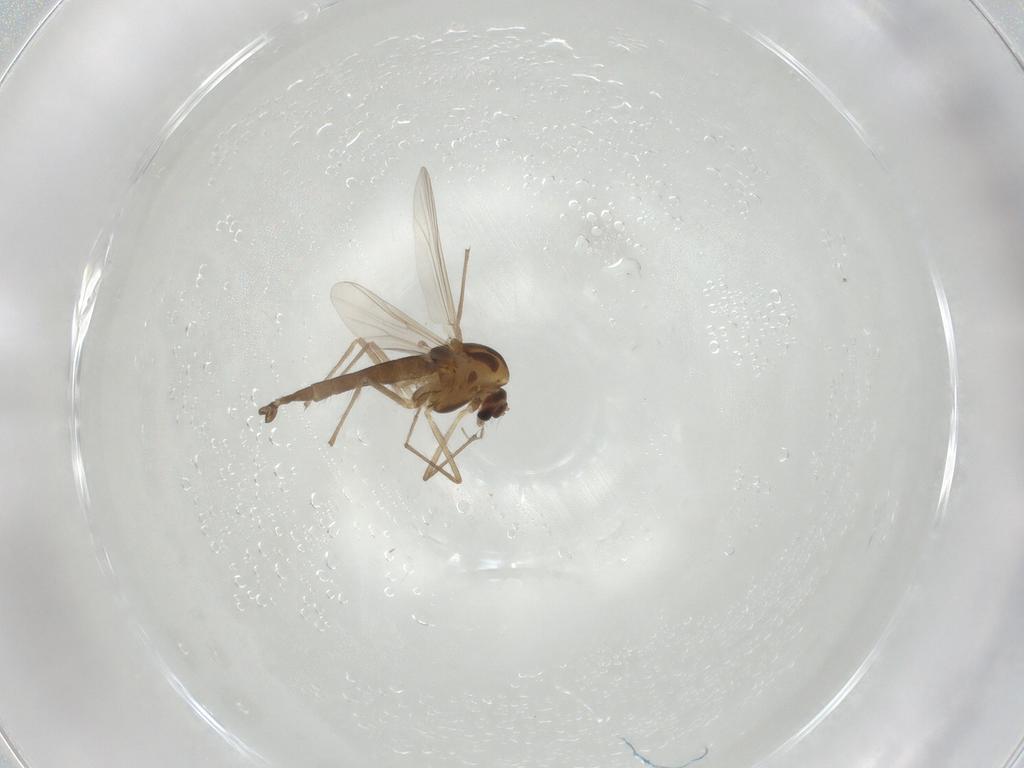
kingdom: Animalia
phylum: Arthropoda
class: Insecta
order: Diptera
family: Chironomidae
